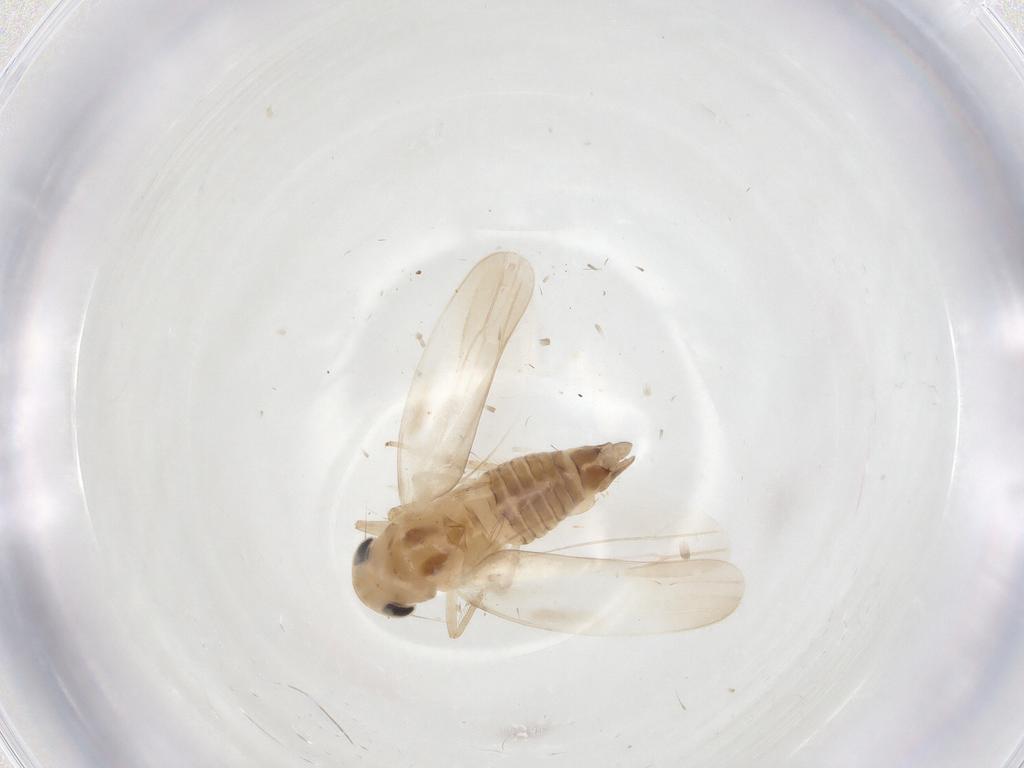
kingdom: Animalia
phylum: Arthropoda
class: Insecta
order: Hemiptera
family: Cicadellidae
